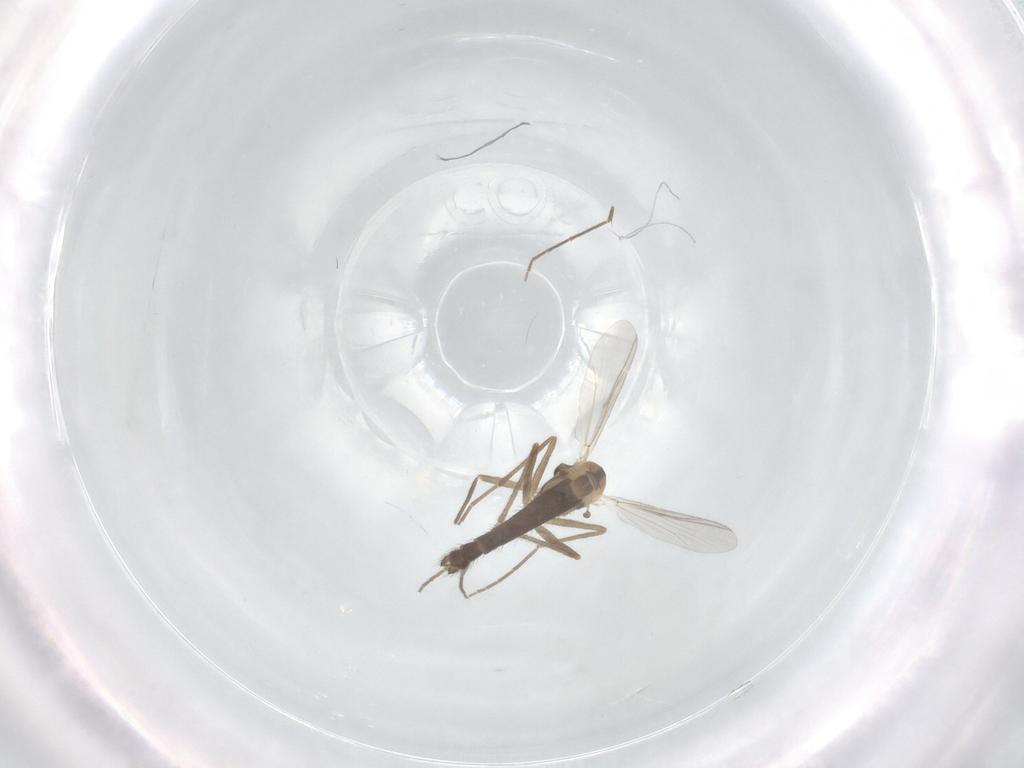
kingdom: Animalia
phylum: Arthropoda
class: Insecta
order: Diptera
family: Chironomidae
